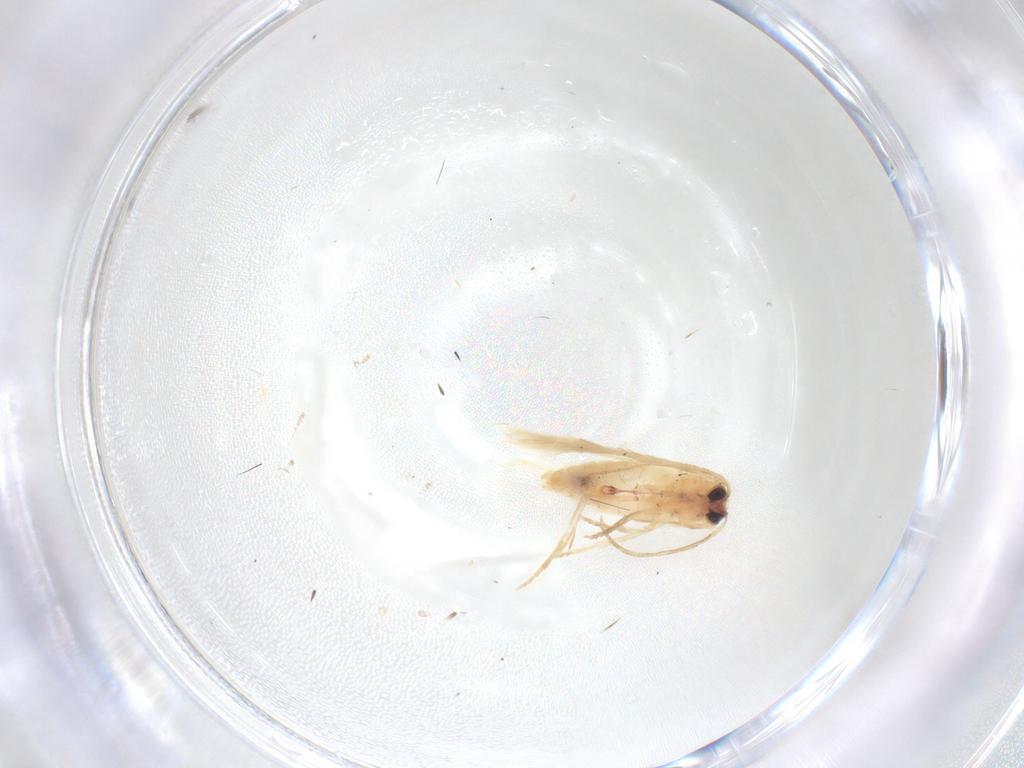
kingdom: Animalia
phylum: Arthropoda
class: Insecta
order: Lepidoptera
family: Nepticulidae
